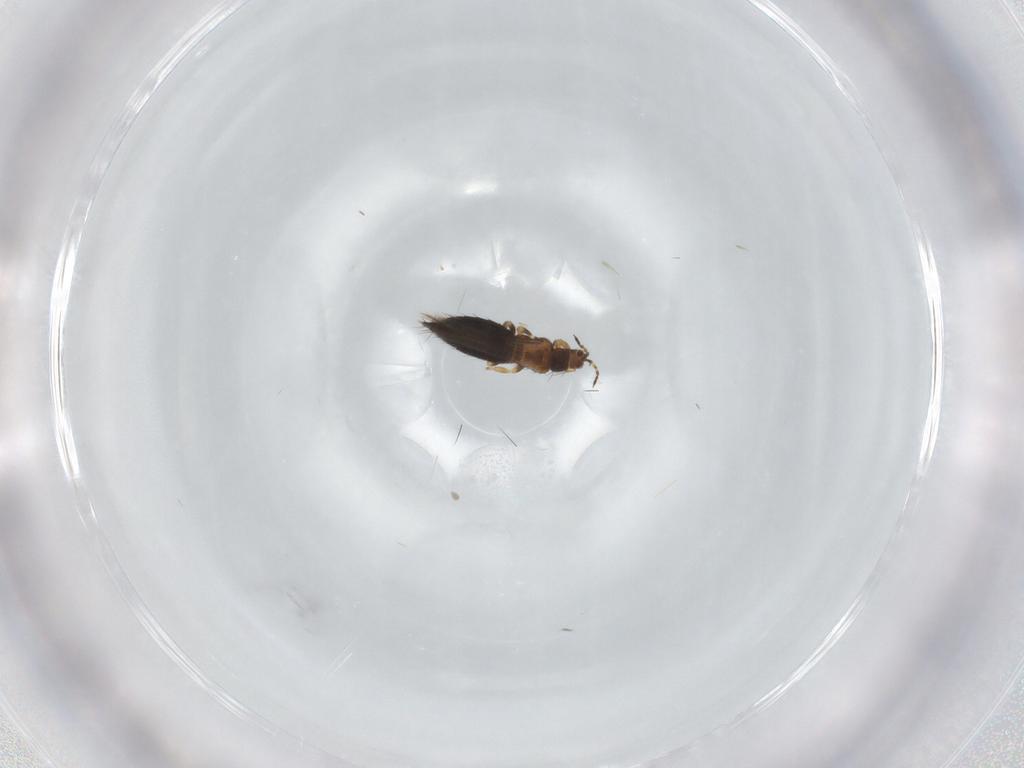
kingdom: Animalia
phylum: Arthropoda
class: Insecta
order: Thysanoptera
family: Thripidae
